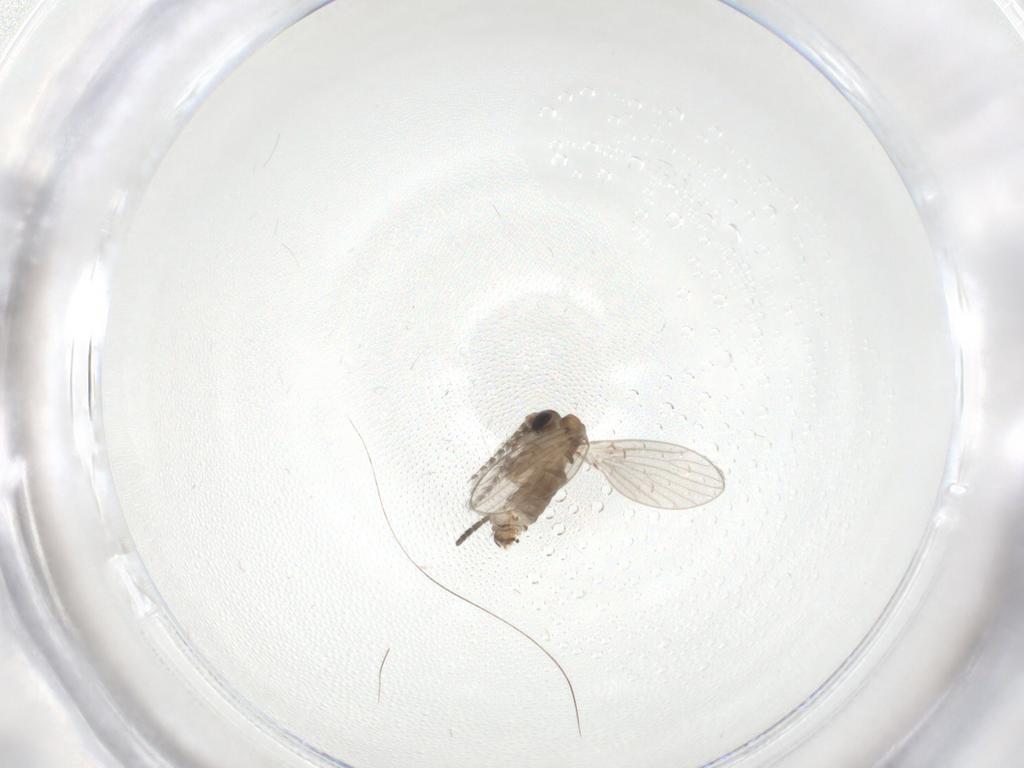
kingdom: Animalia
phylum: Arthropoda
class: Insecta
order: Diptera
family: Psychodidae
